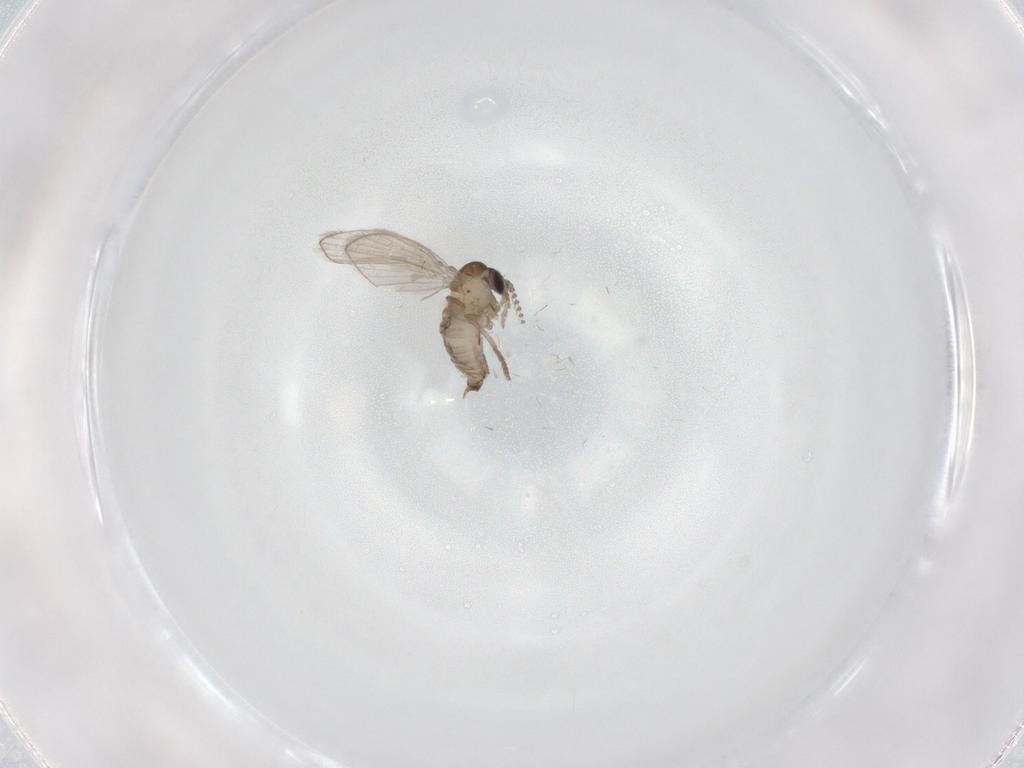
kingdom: Animalia
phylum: Arthropoda
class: Insecta
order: Diptera
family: Psychodidae
